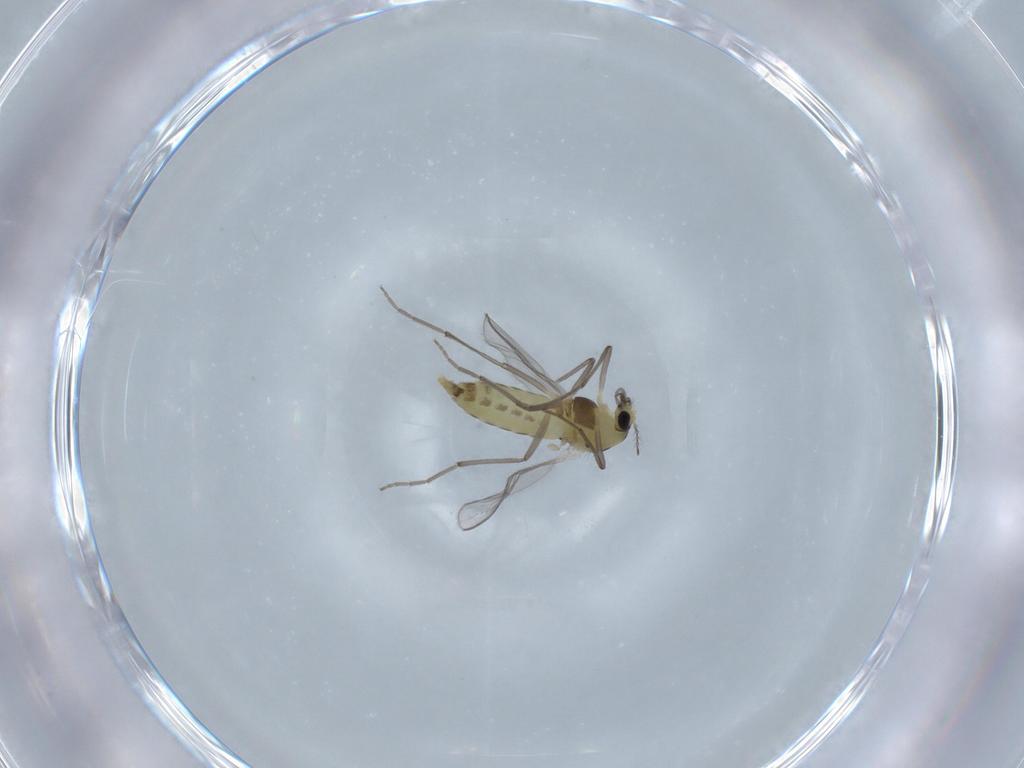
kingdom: Animalia
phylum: Arthropoda
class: Insecta
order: Diptera
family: Chironomidae
